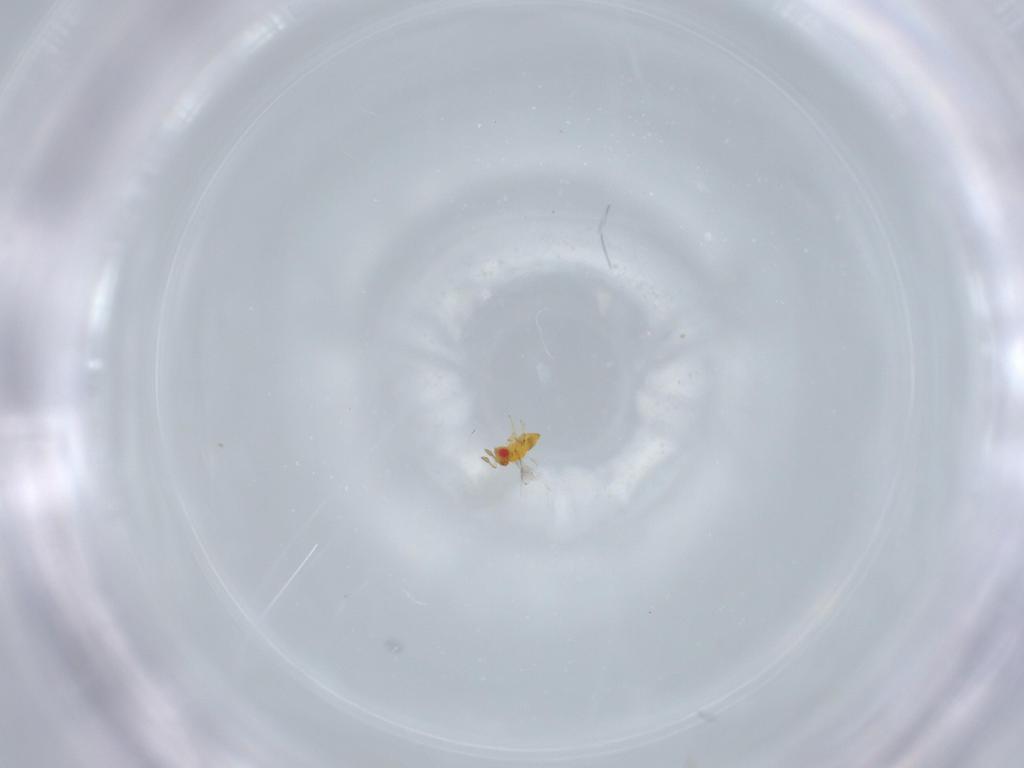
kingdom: Animalia
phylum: Arthropoda
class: Insecta
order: Hymenoptera
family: Trichogrammatidae
